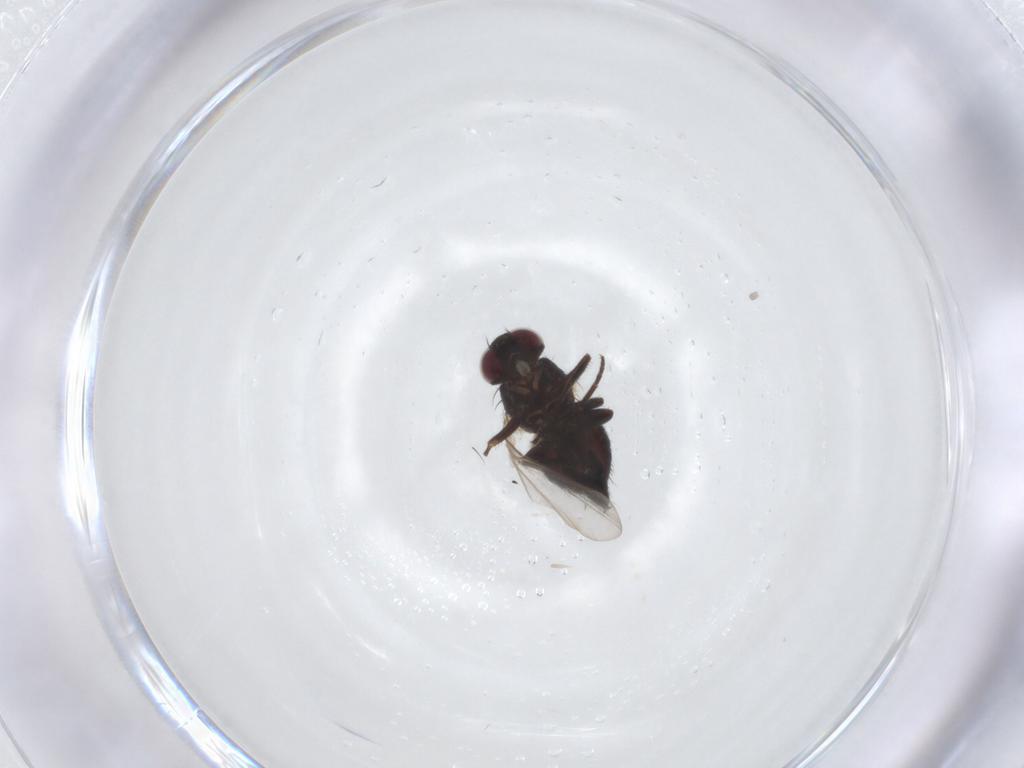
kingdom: Animalia
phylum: Arthropoda
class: Insecta
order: Diptera
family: Agromyzidae
